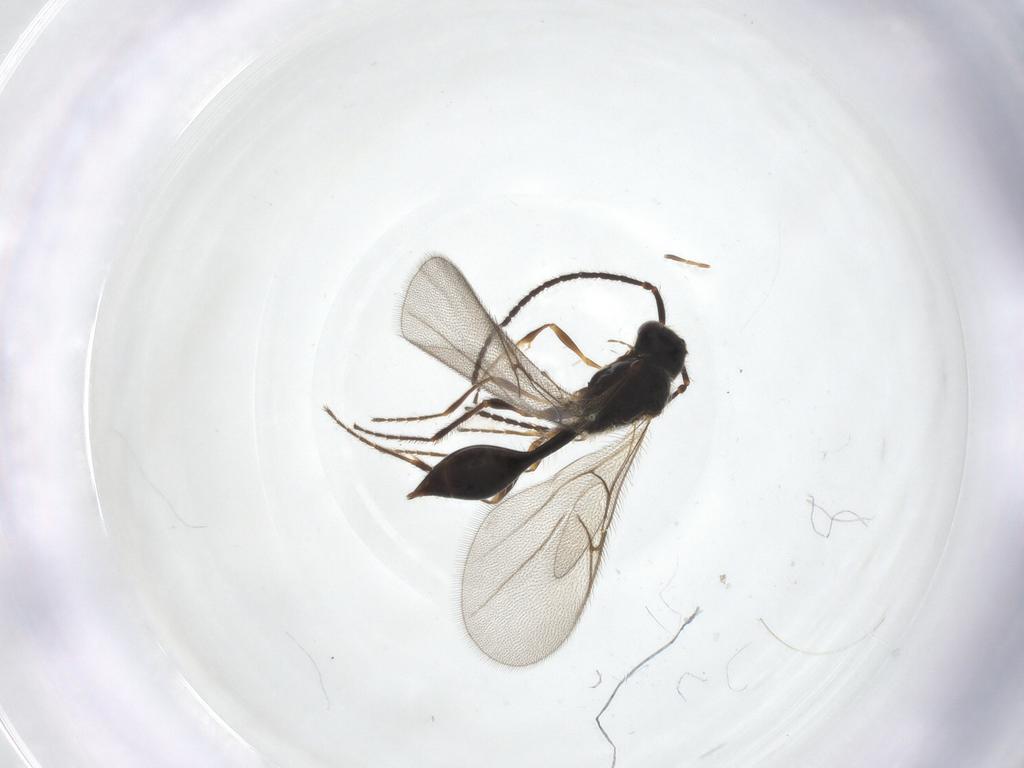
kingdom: Animalia
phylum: Arthropoda
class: Insecta
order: Hymenoptera
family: Diapriidae
